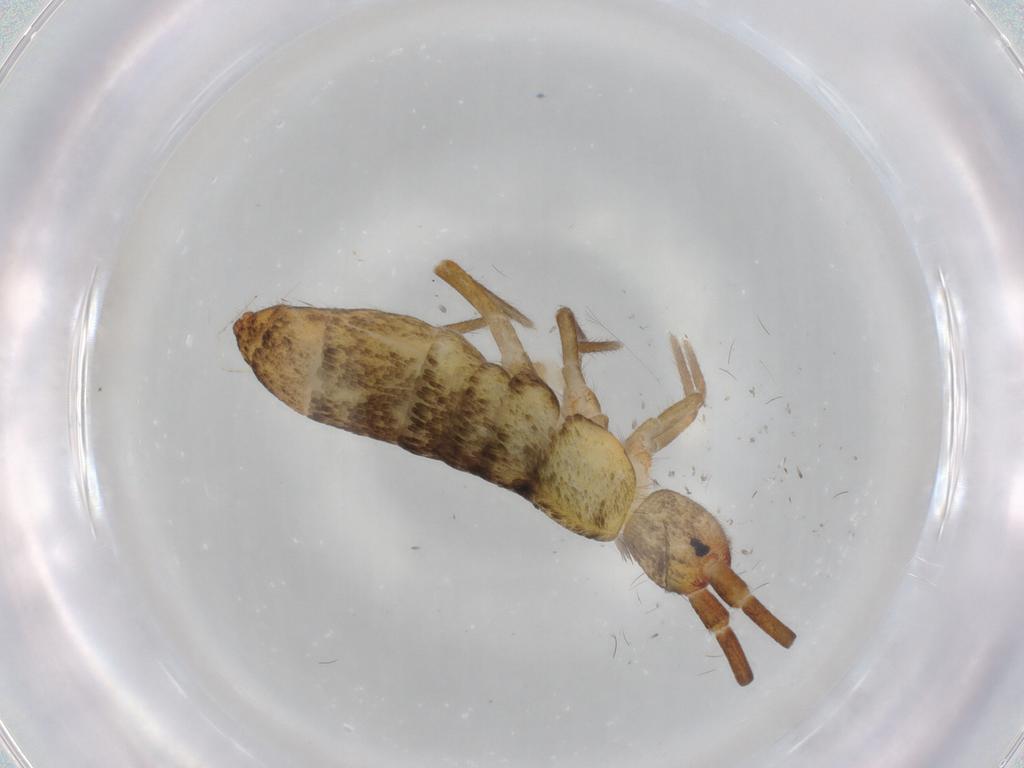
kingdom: Animalia
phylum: Arthropoda
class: Collembola
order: Entomobryomorpha
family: Tomoceridae
